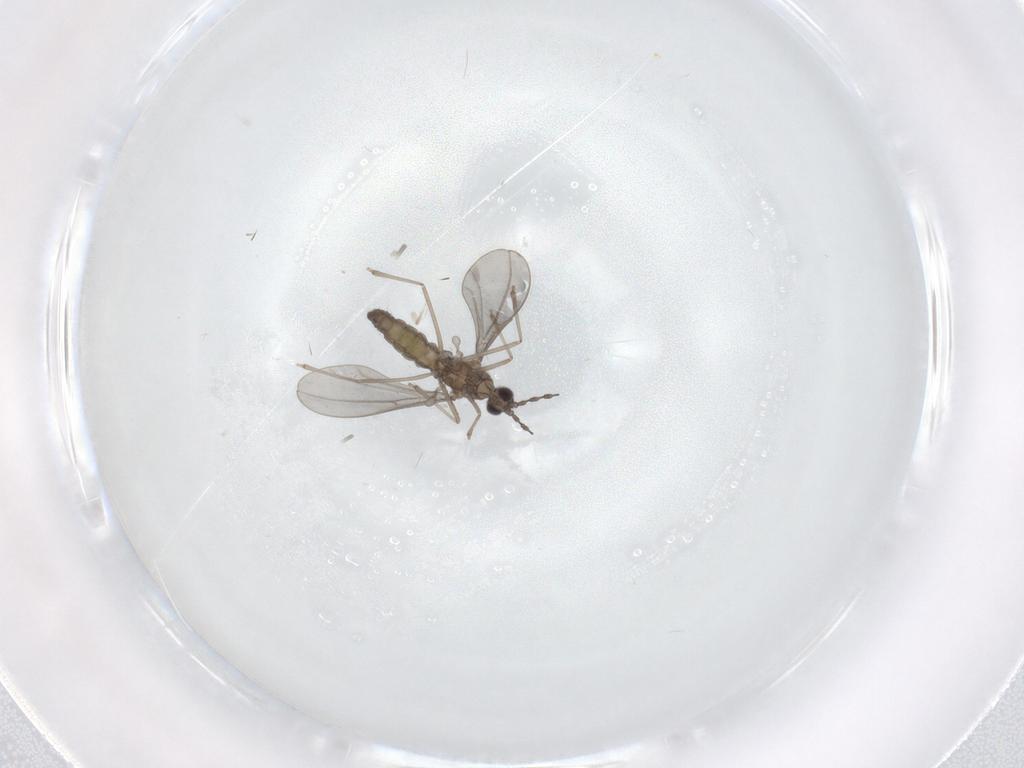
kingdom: Animalia
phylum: Arthropoda
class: Insecta
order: Diptera
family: Cecidomyiidae
